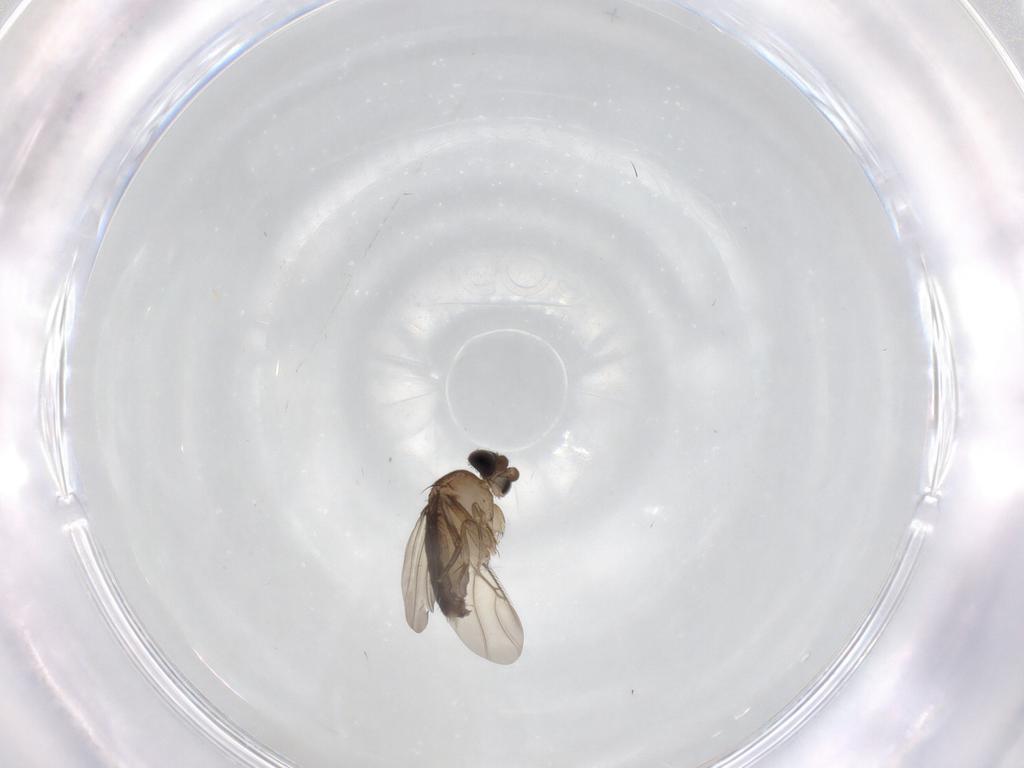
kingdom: Animalia
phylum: Arthropoda
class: Insecta
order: Diptera
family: Phoridae
